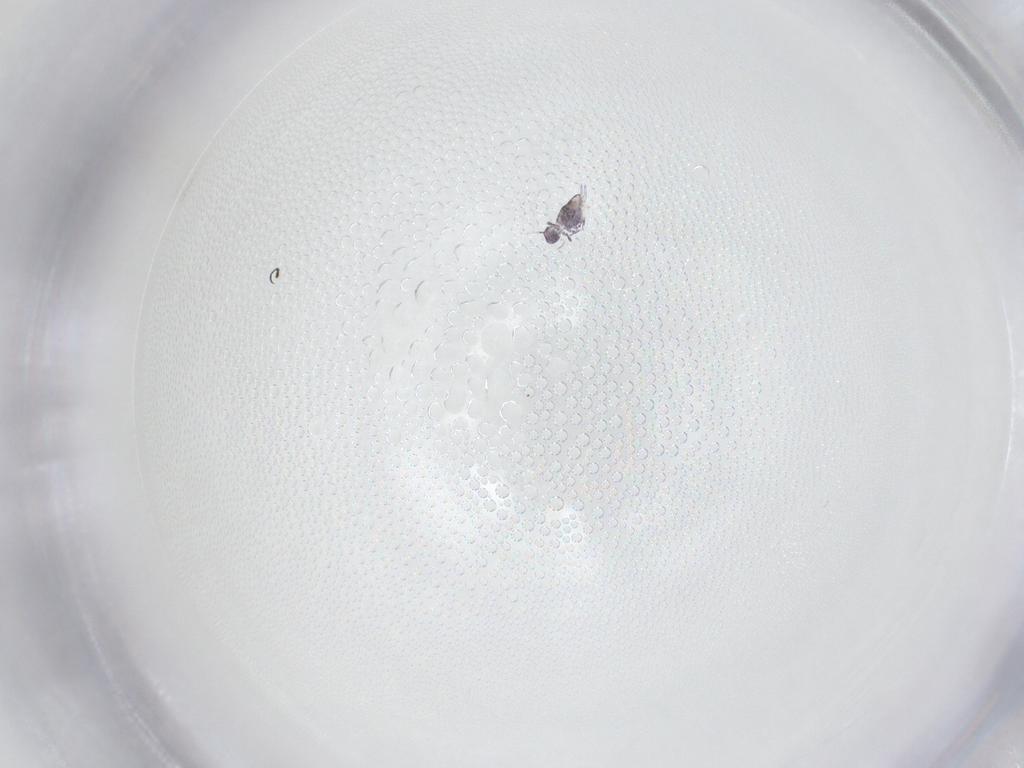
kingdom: Animalia
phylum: Arthropoda
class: Collembola
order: Symphypleona
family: Katiannidae
